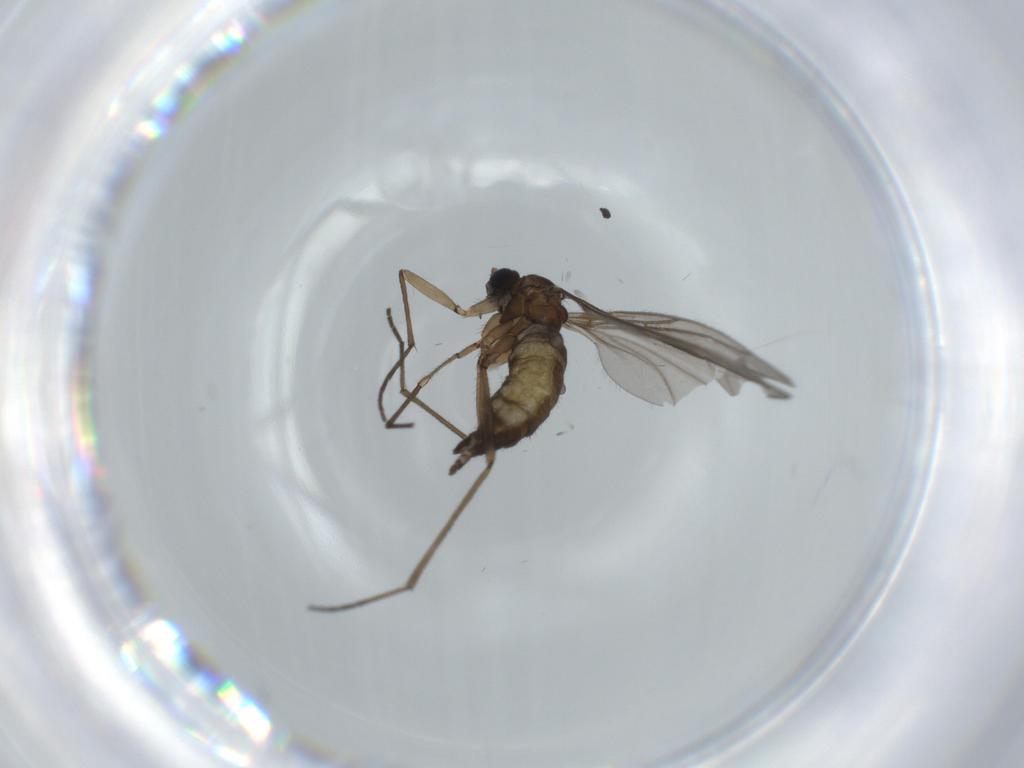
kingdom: Animalia
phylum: Arthropoda
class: Insecta
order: Diptera
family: Sciaridae
